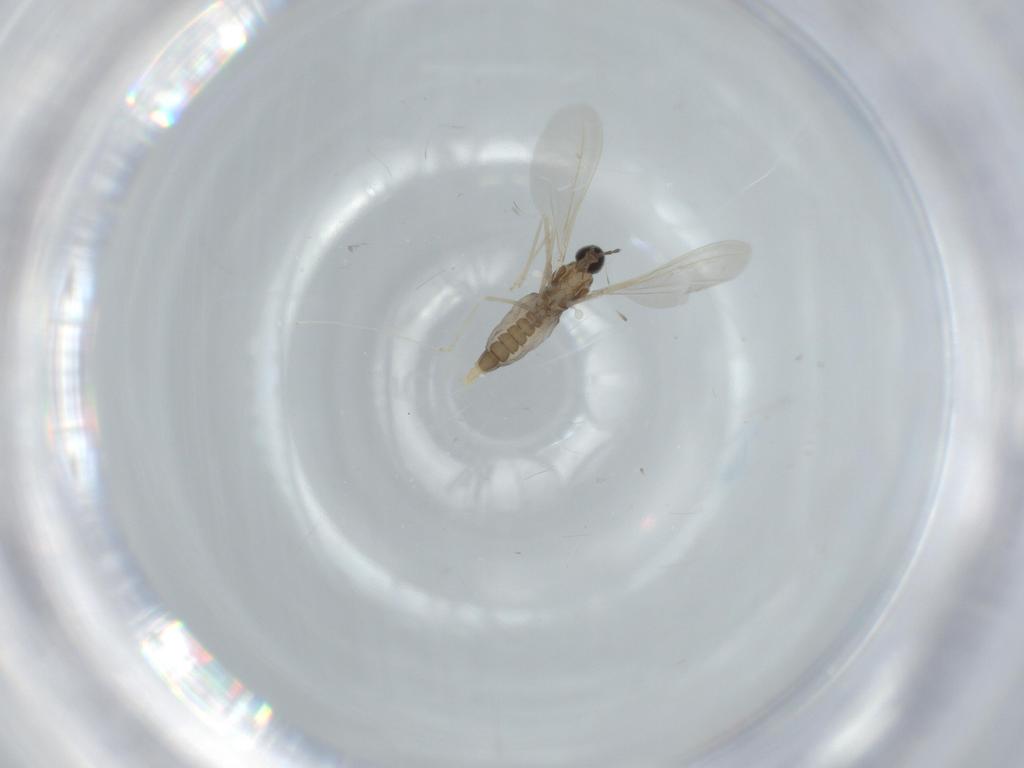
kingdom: Animalia
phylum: Arthropoda
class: Insecta
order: Diptera
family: Cecidomyiidae
